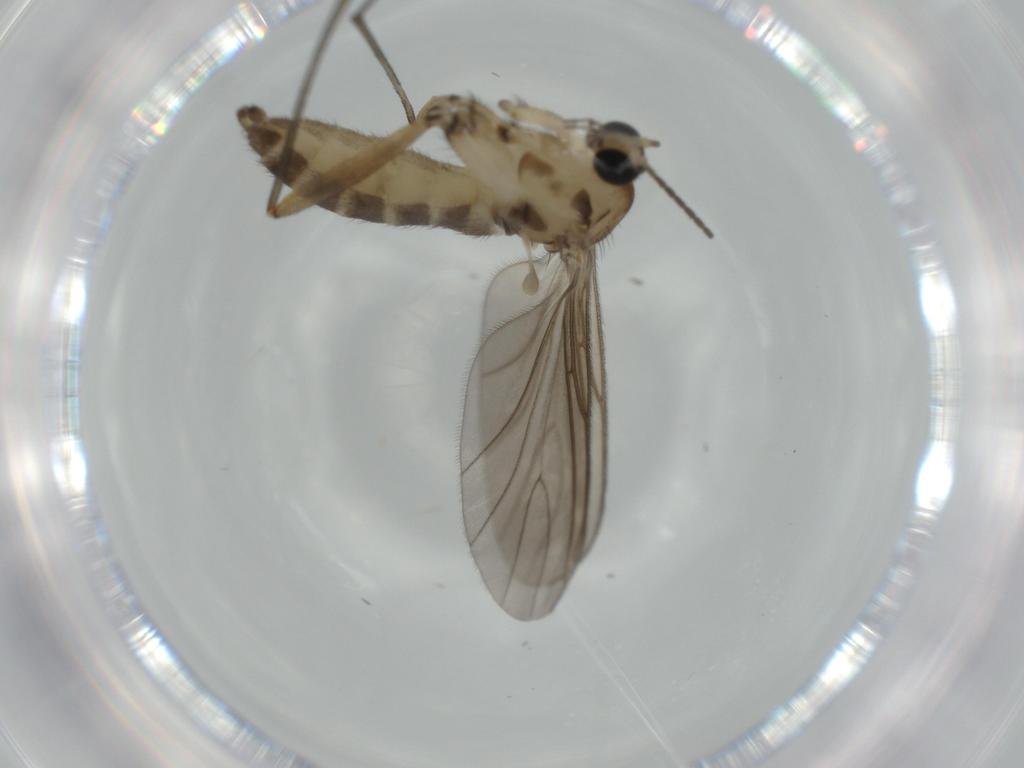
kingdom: Animalia
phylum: Arthropoda
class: Insecta
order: Diptera
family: Sciaridae
